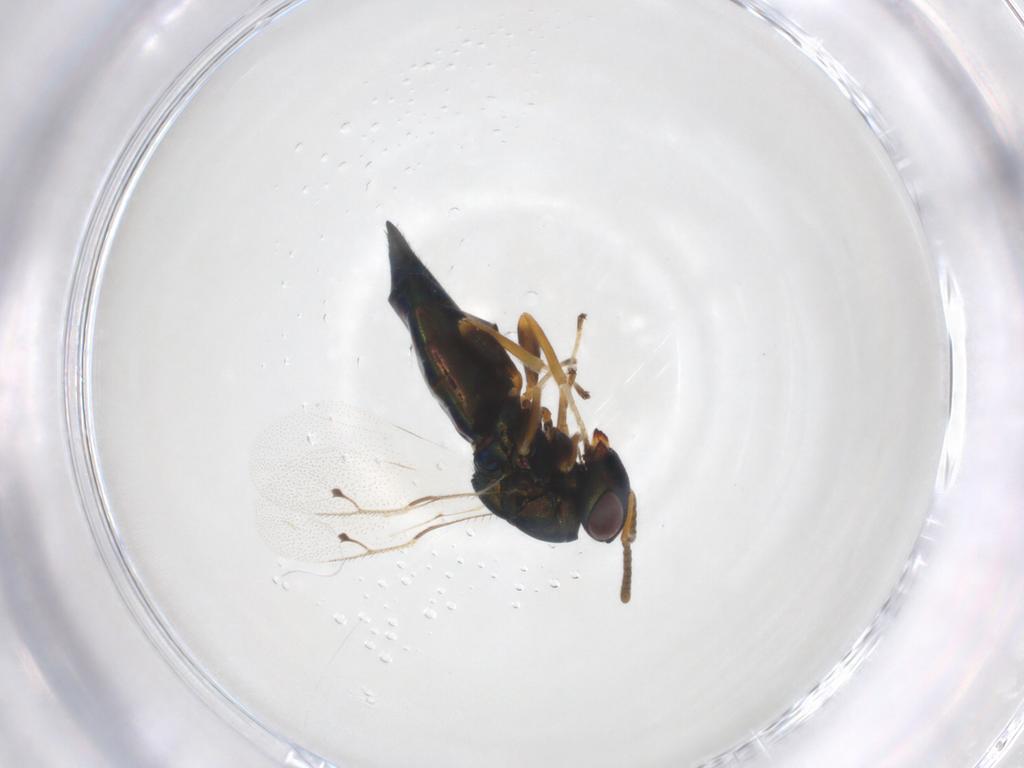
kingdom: Animalia
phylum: Arthropoda
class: Insecta
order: Hymenoptera
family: Pteromalidae
